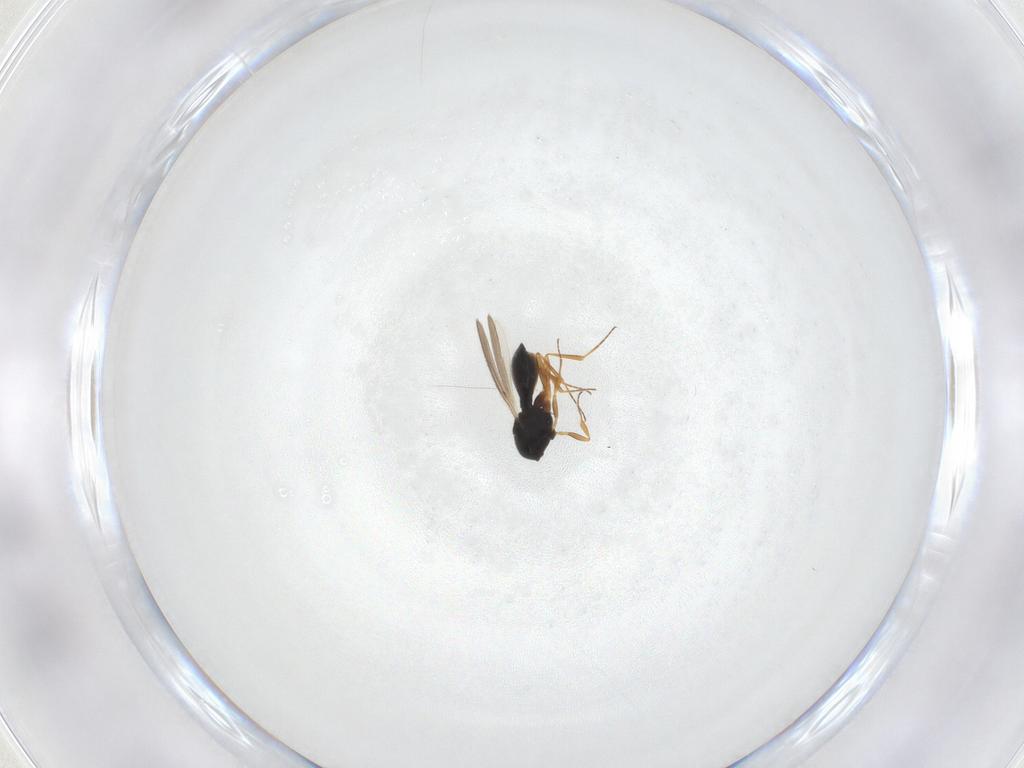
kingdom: Animalia
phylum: Arthropoda
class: Insecta
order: Hymenoptera
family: Scelionidae
